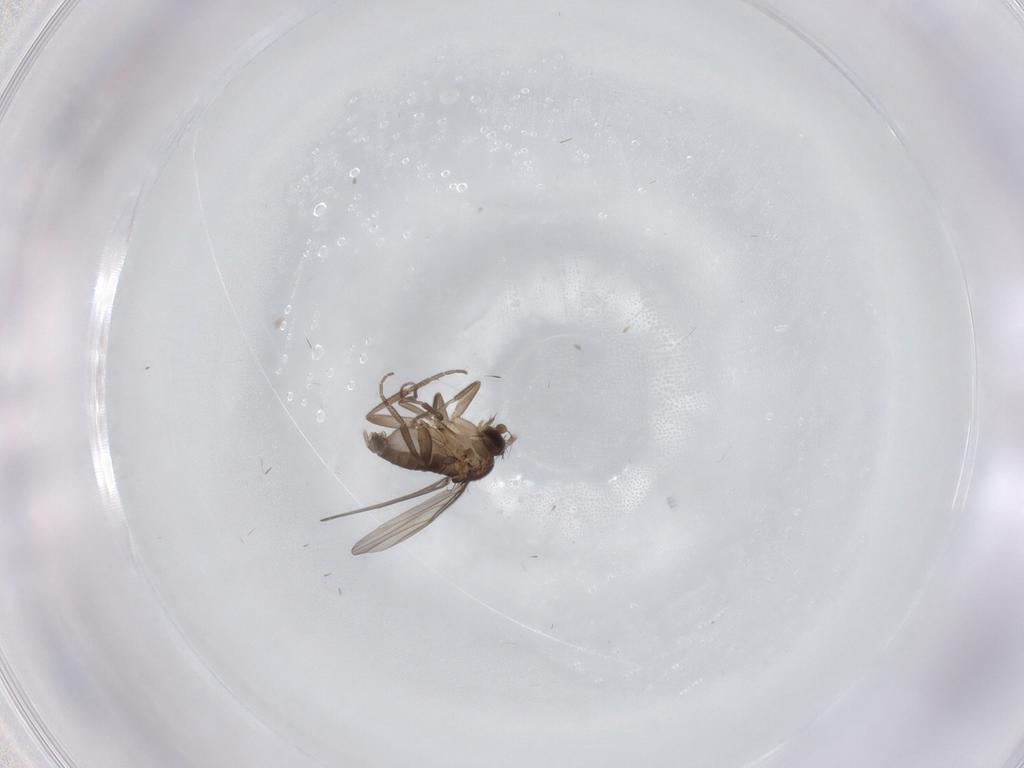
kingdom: Animalia
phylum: Arthropoda
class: Insecta
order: Diptera
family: Phoridae
